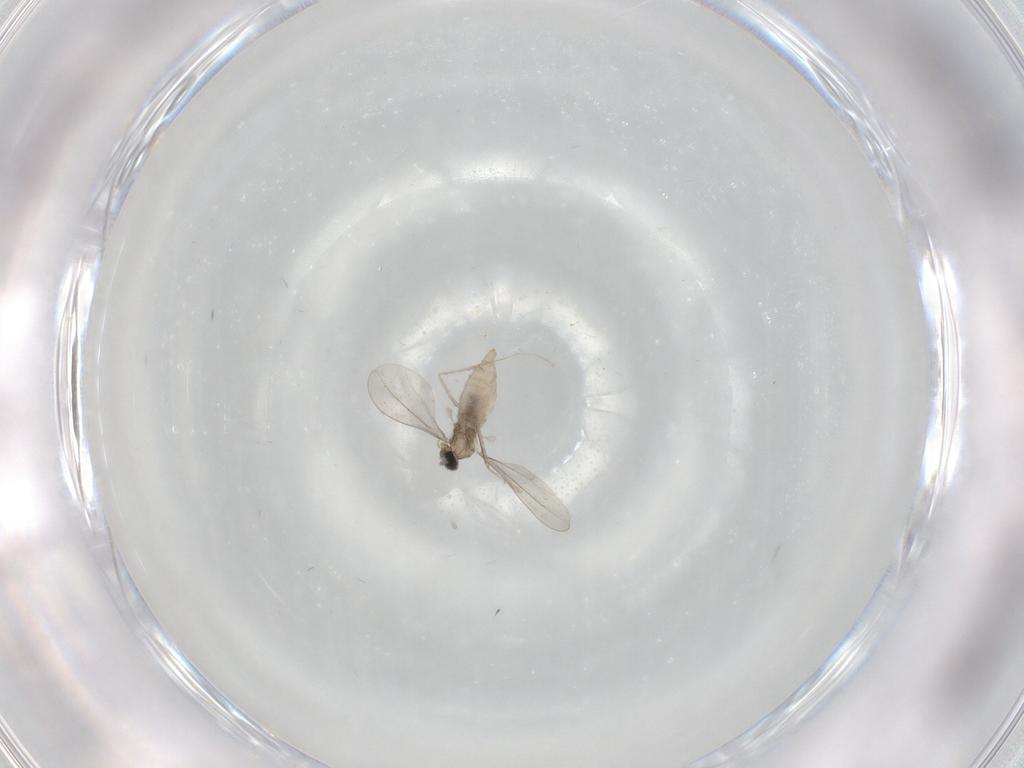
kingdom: Animalia
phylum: Arthropoda
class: Insecta
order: Diptera
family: Cecidomyiidae
